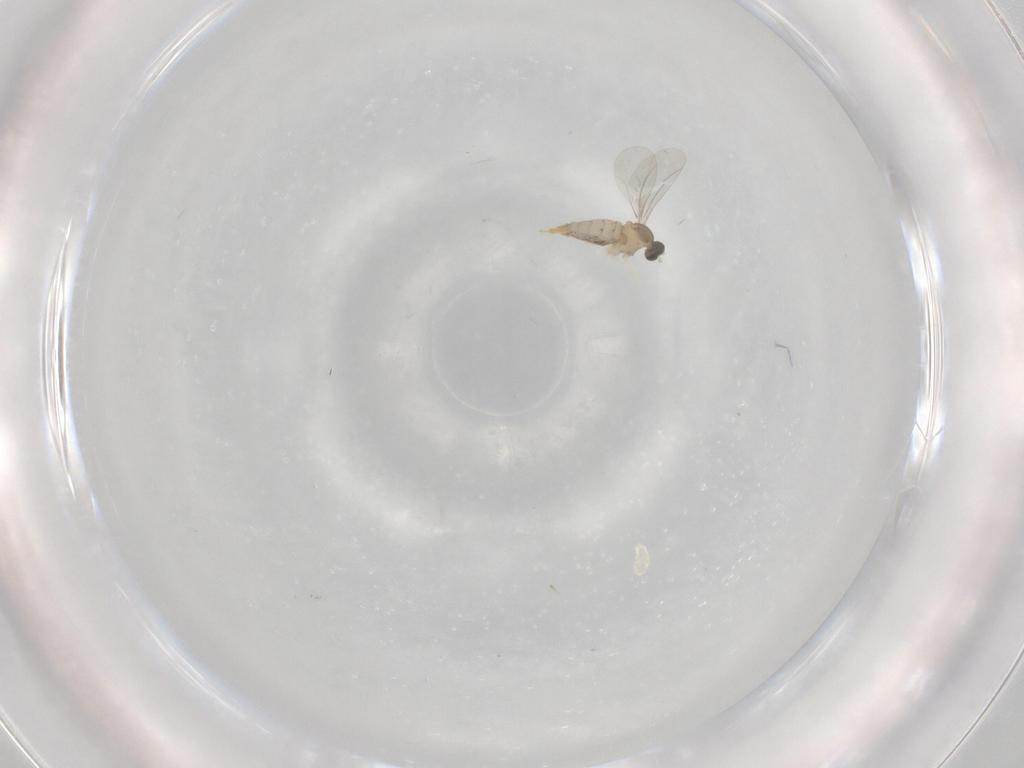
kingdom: Animalia
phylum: Arthropoda
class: Insecta
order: Diptera
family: Cecidomyiidae
